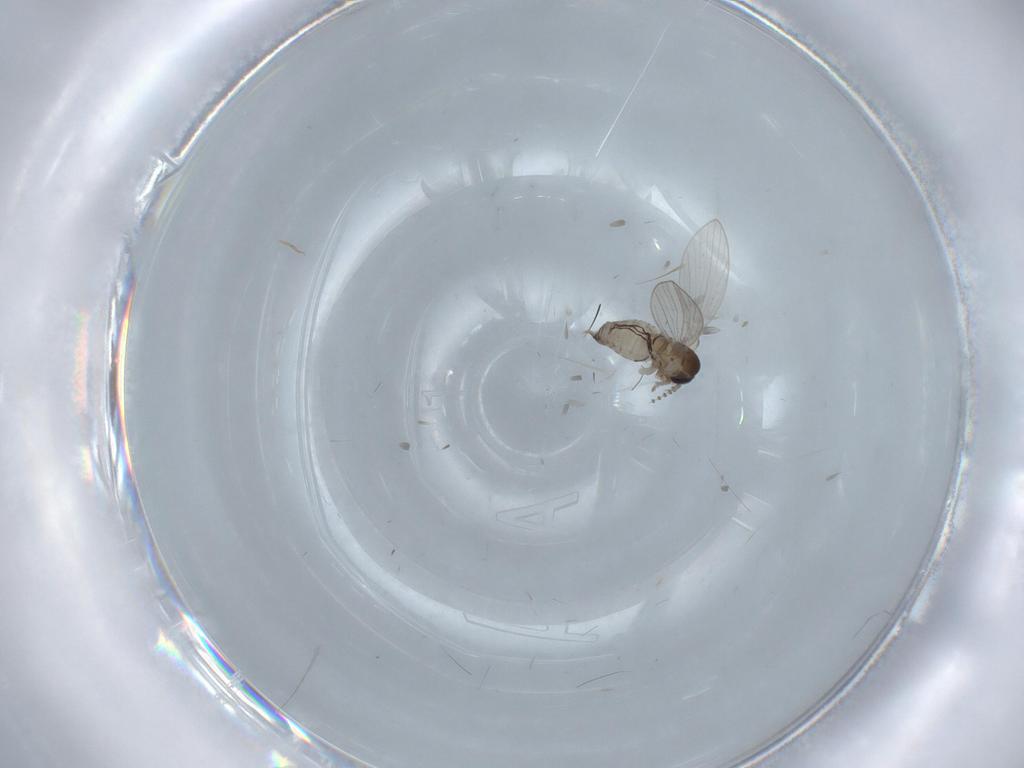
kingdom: Animalia
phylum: Arthropoda
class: Insecta
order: Diptera
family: Psychodidae
